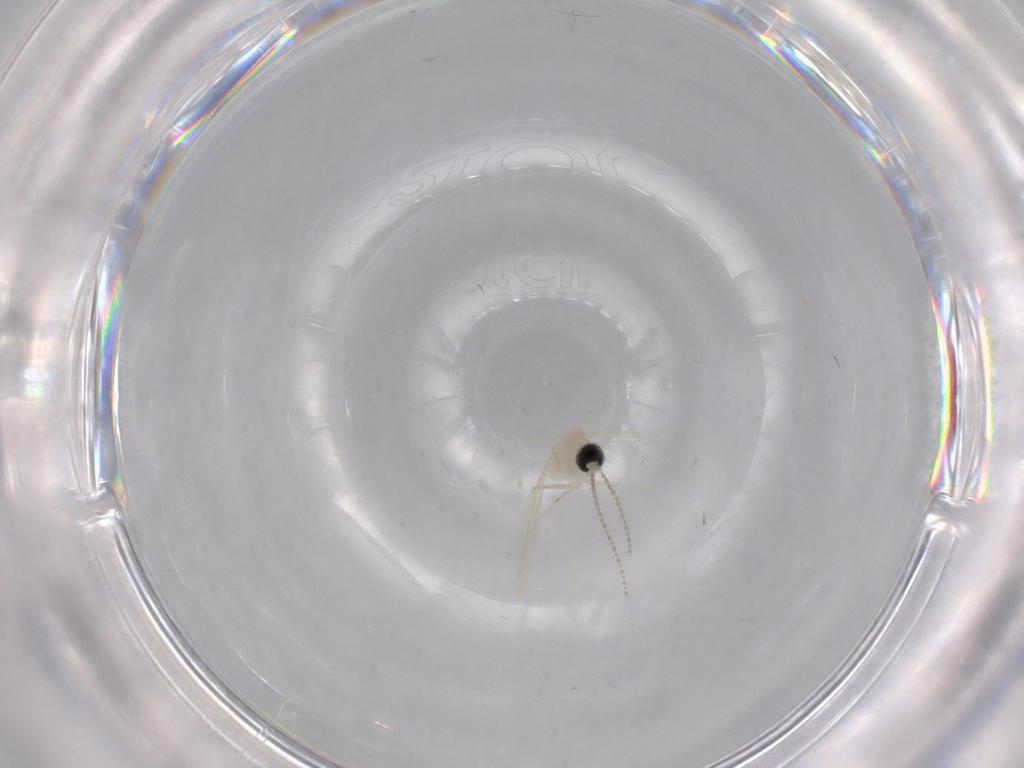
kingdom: Animalia
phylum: Arthropoda
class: Insecta
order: Diptera
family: Cecidomyiidae
